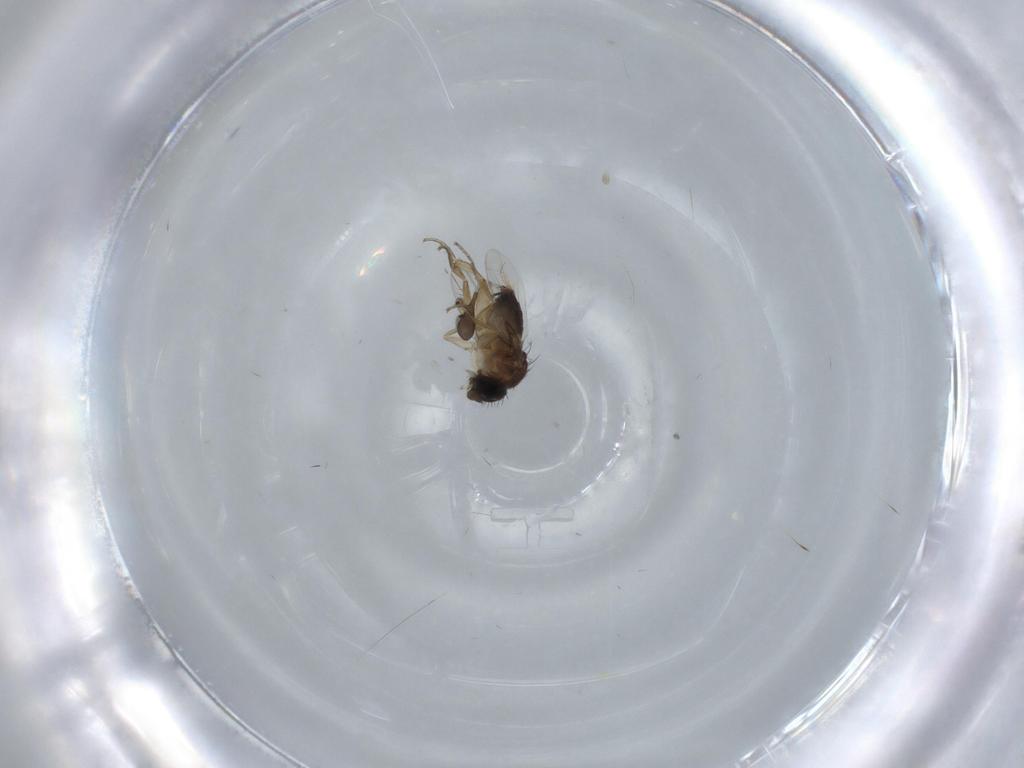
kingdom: Animalia
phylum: Arthropoda
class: Insecta
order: Diptera
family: Phoridae
